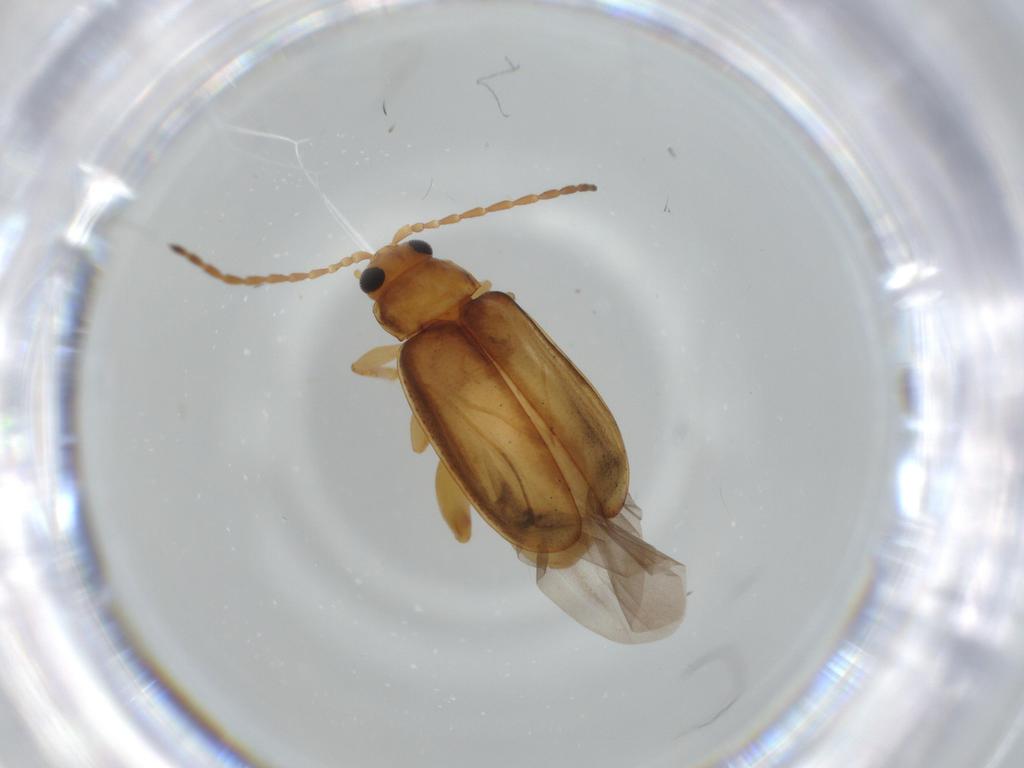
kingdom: Animalia
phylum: Arthropoda
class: Insecta
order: Coleoptera
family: Chrysomelidae
